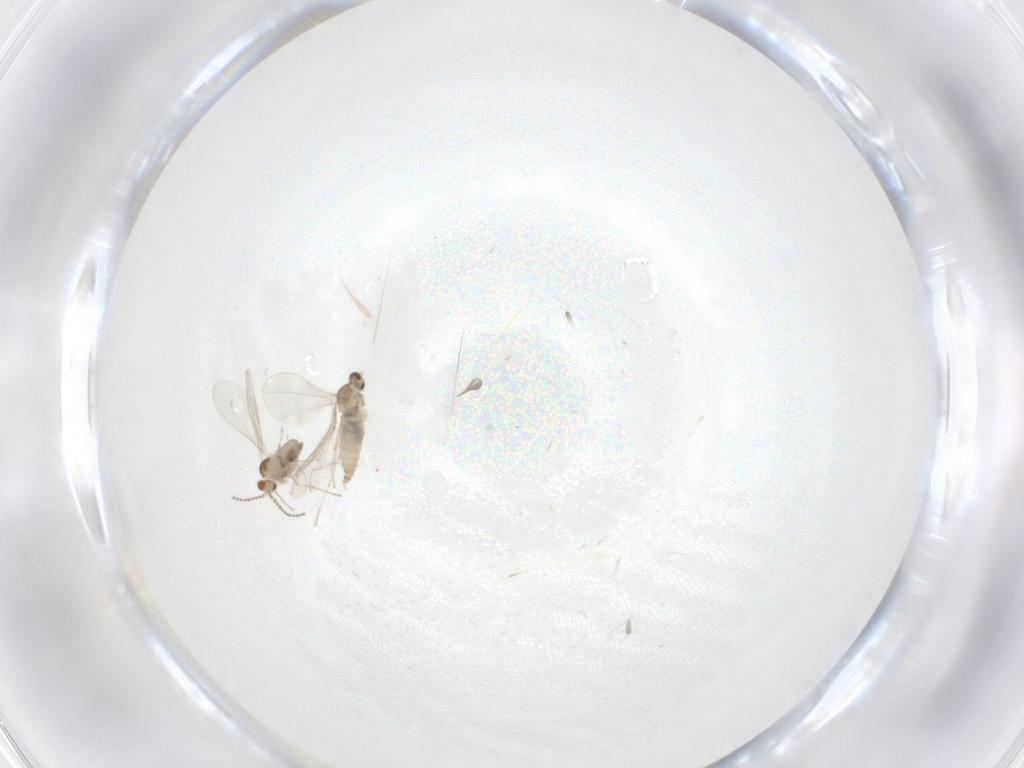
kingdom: Animalia
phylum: Arthropoda
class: Insecta
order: Diptera
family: Cecidomyiidae
